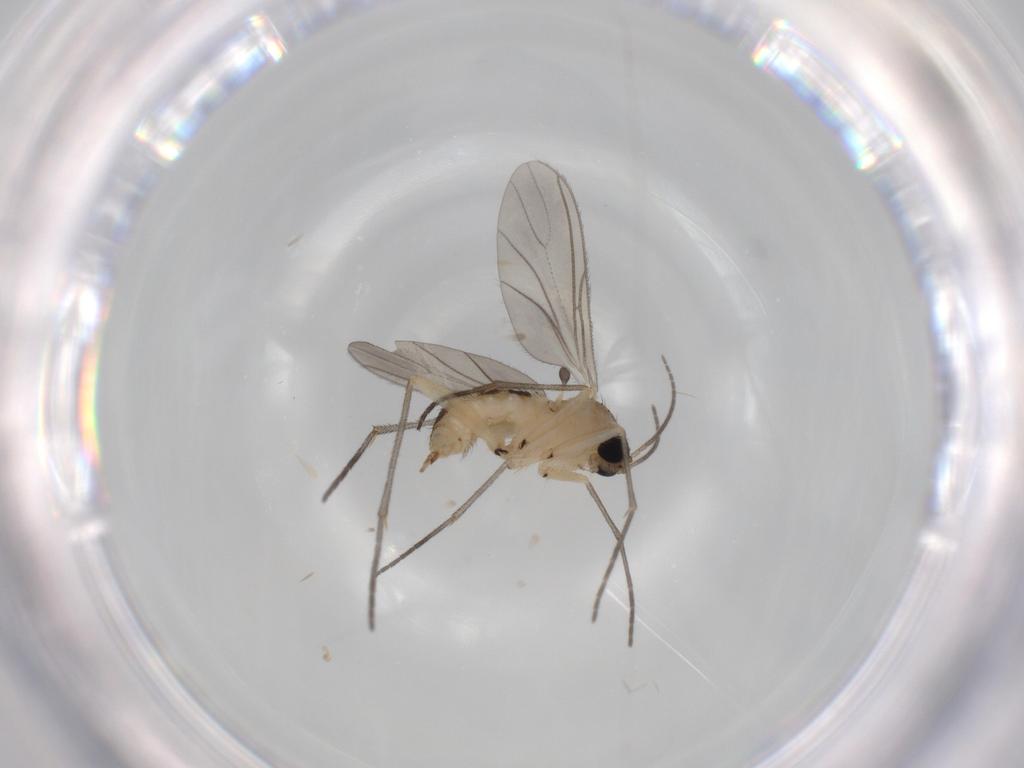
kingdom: Animalia
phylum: Arthropoda
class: Insecta
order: Diptera
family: Sciaridae
